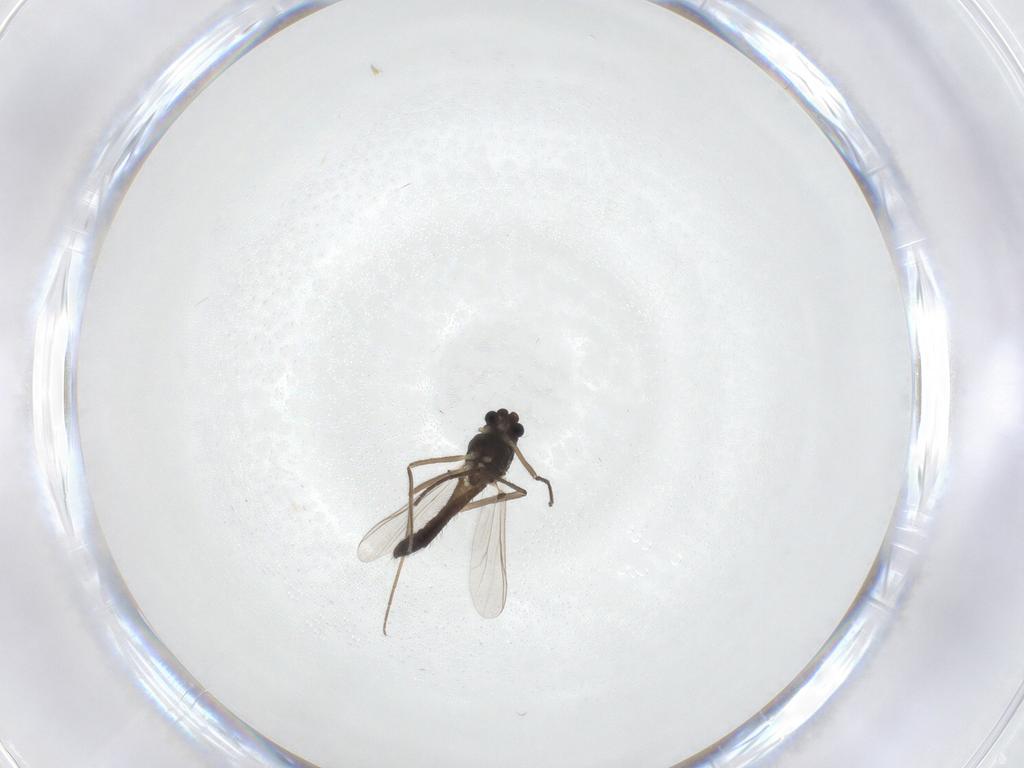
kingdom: Animalia
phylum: Arthropoda
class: Insecta
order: Diptera
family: Chironomidae
